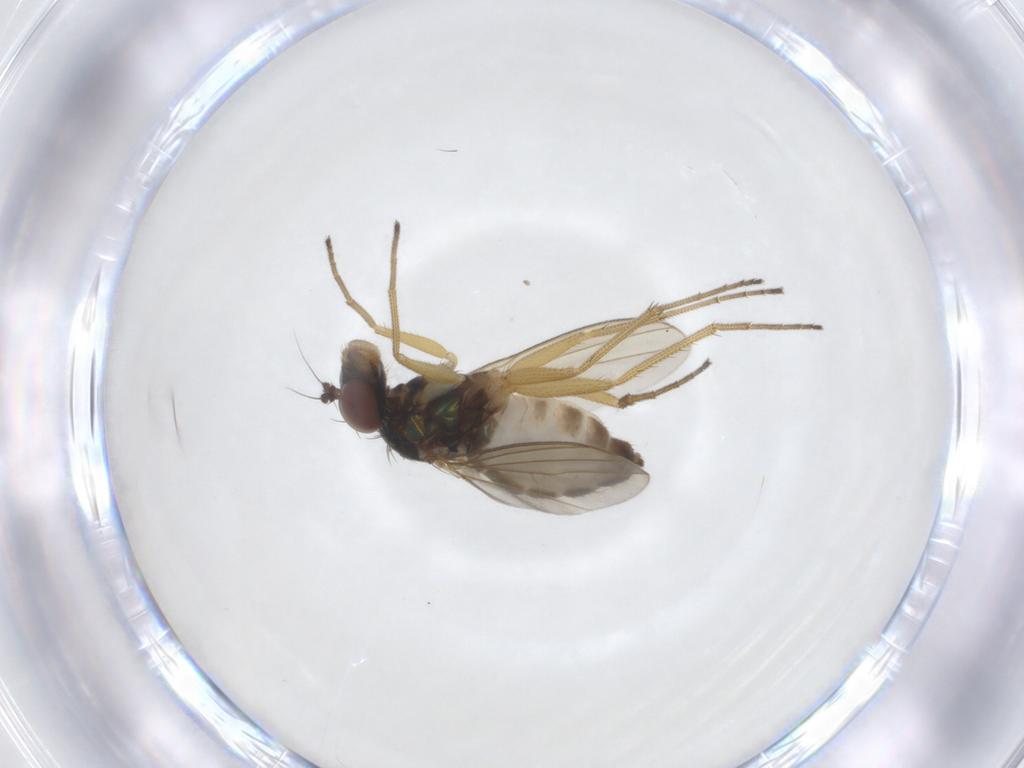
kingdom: Animalia
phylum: Arthropoda
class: Insecta
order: Diptera
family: Dolichopodidae
